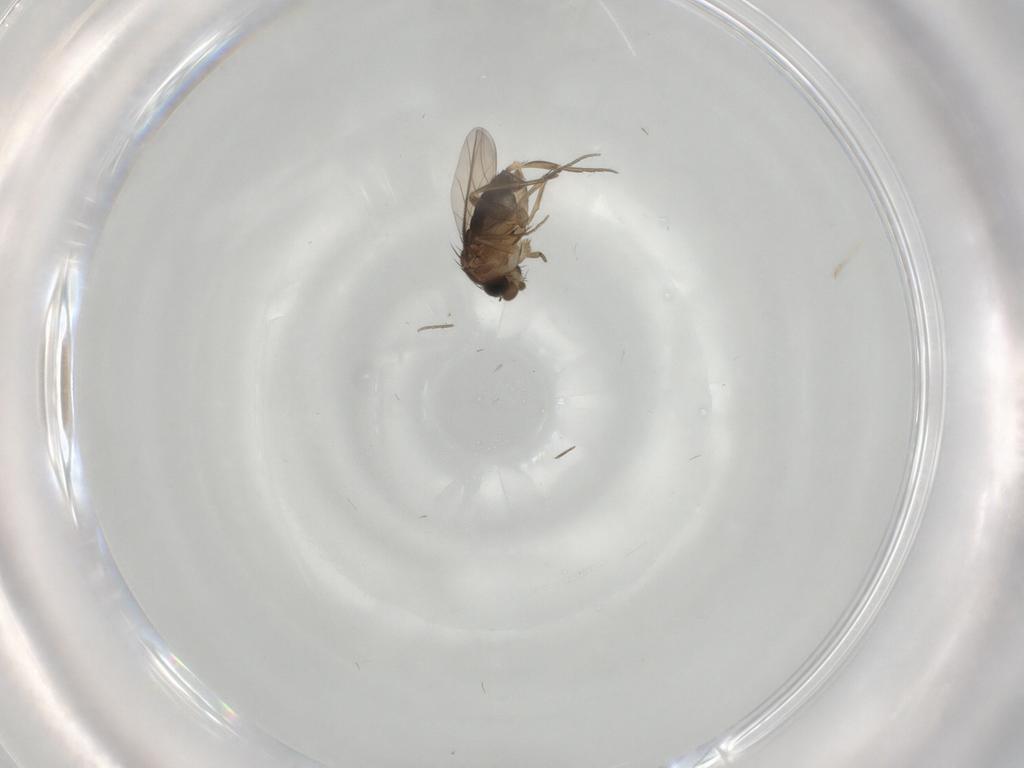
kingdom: Animalia
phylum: Arthropoda
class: Insecta
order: Diptera
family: Phoridae
